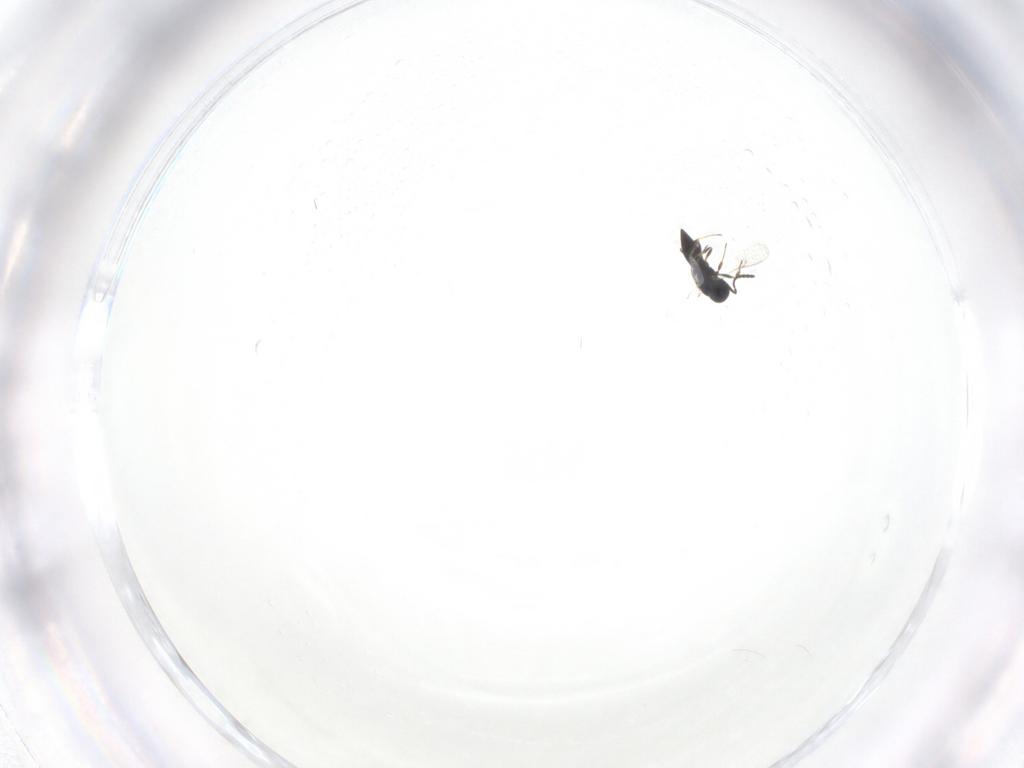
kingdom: Animalia
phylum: Arthropoda
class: Insecta
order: Hymenoptera
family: Scelionidae
